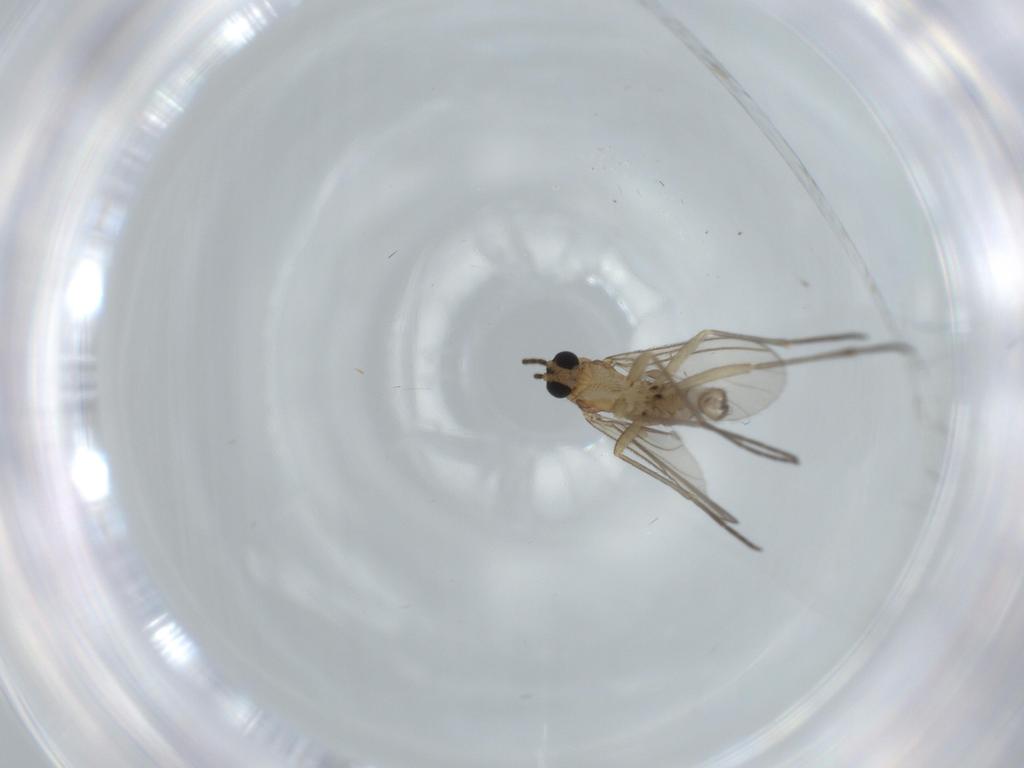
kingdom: Animalia
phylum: Arthropoda
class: Insecta
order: Diptera
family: Sciaridae
